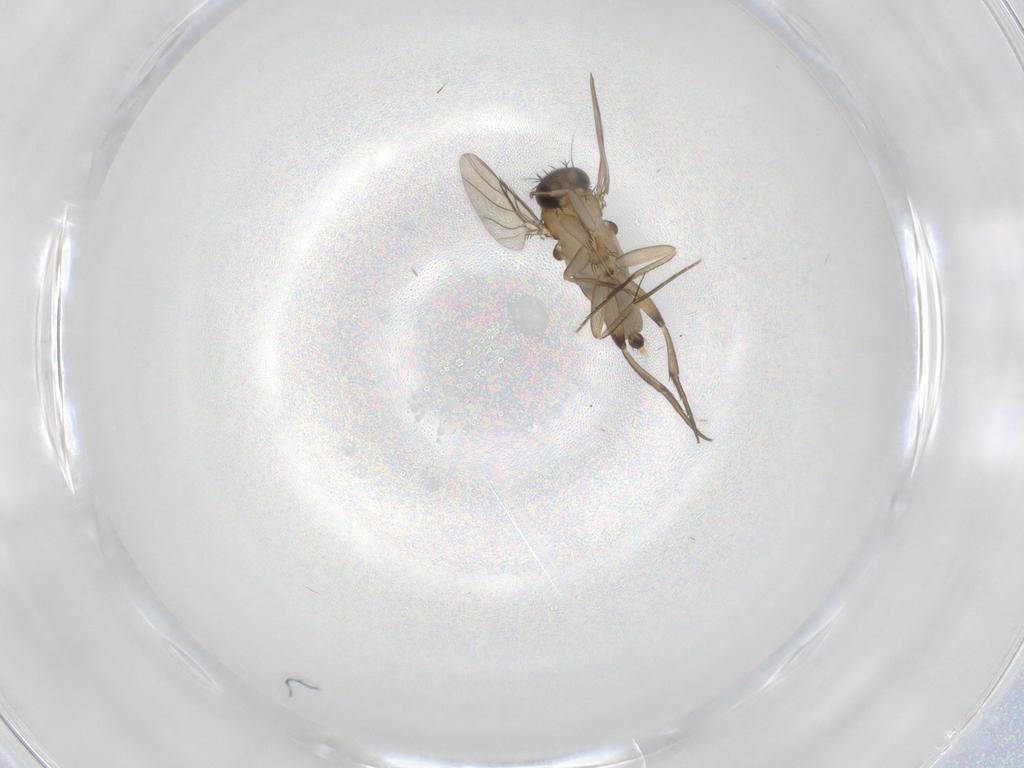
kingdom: Animalia
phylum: Arthropoda
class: Insecta
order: Diptera
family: Phoridae
